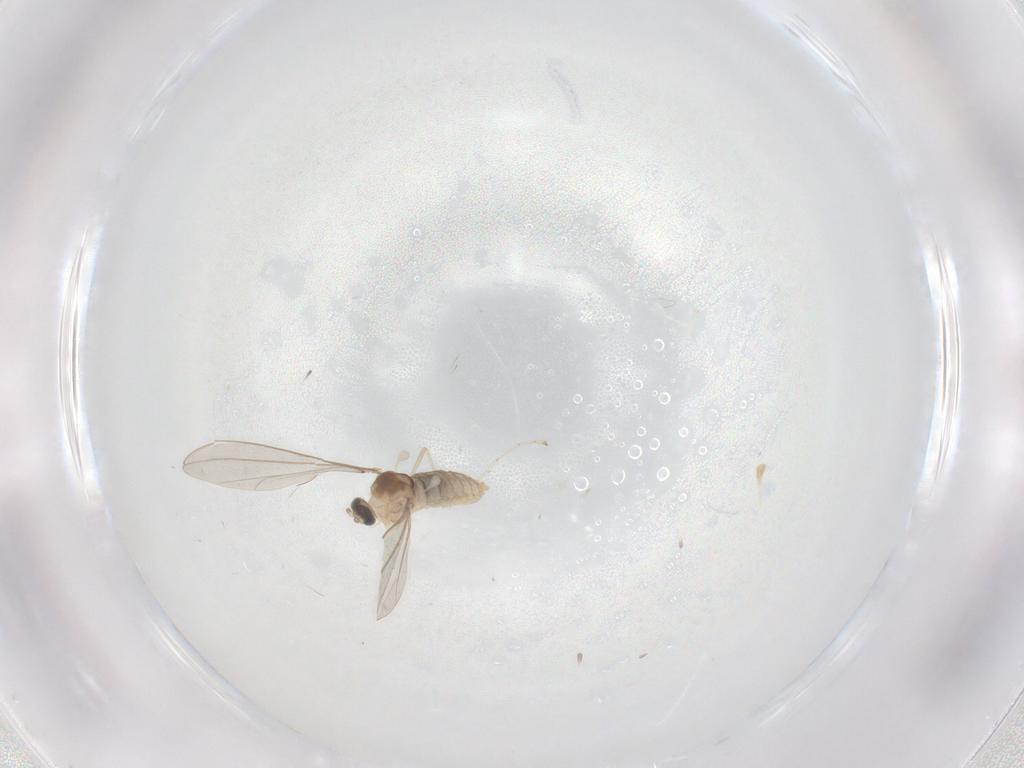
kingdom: Animalia
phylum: Arthropoda
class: Insecta
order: Diptera
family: Cecidomyiidae
